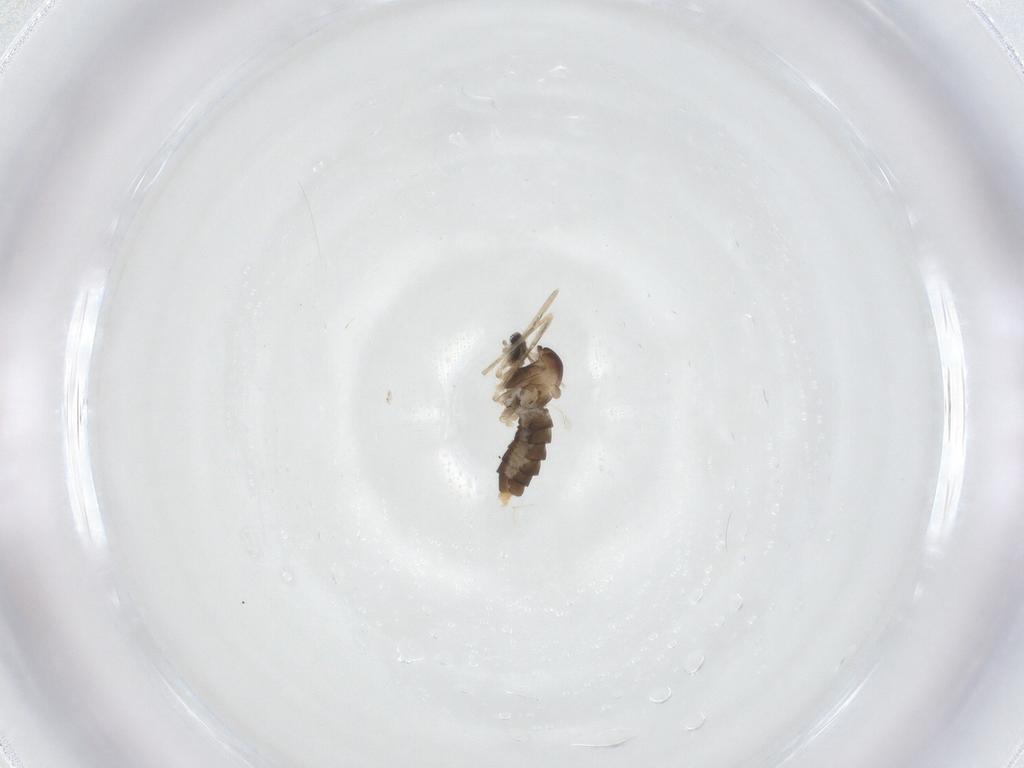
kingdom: Animalia
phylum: Arthropoda
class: Insecta
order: Diptera
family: Cecidomyiidae
